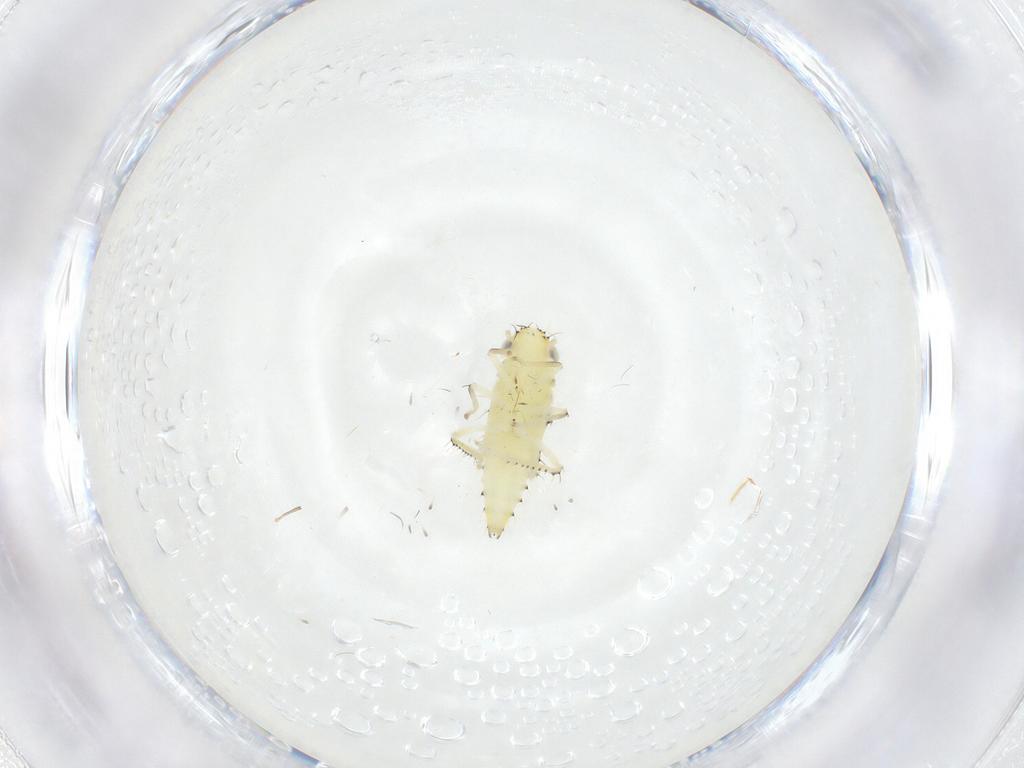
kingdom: Animalia
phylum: Arthropoda
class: Insecta
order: Hemiptera
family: Cicadellidae
